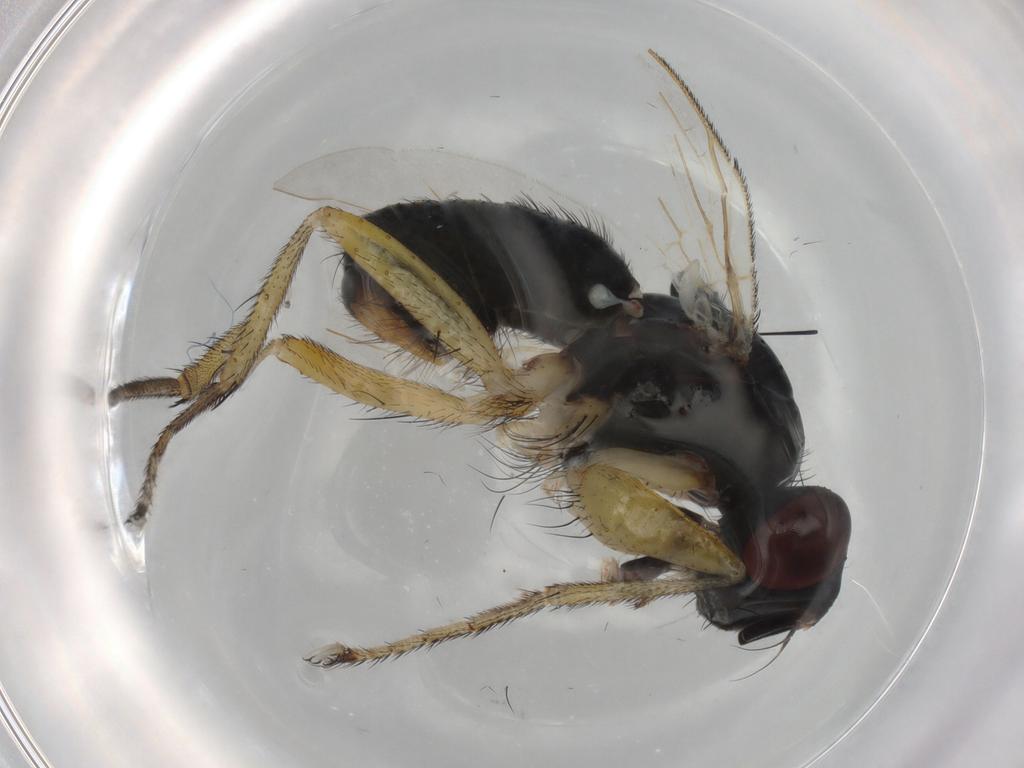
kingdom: Animalia
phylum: Arthropoda
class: Insecta
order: Diptera
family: Muscidae
